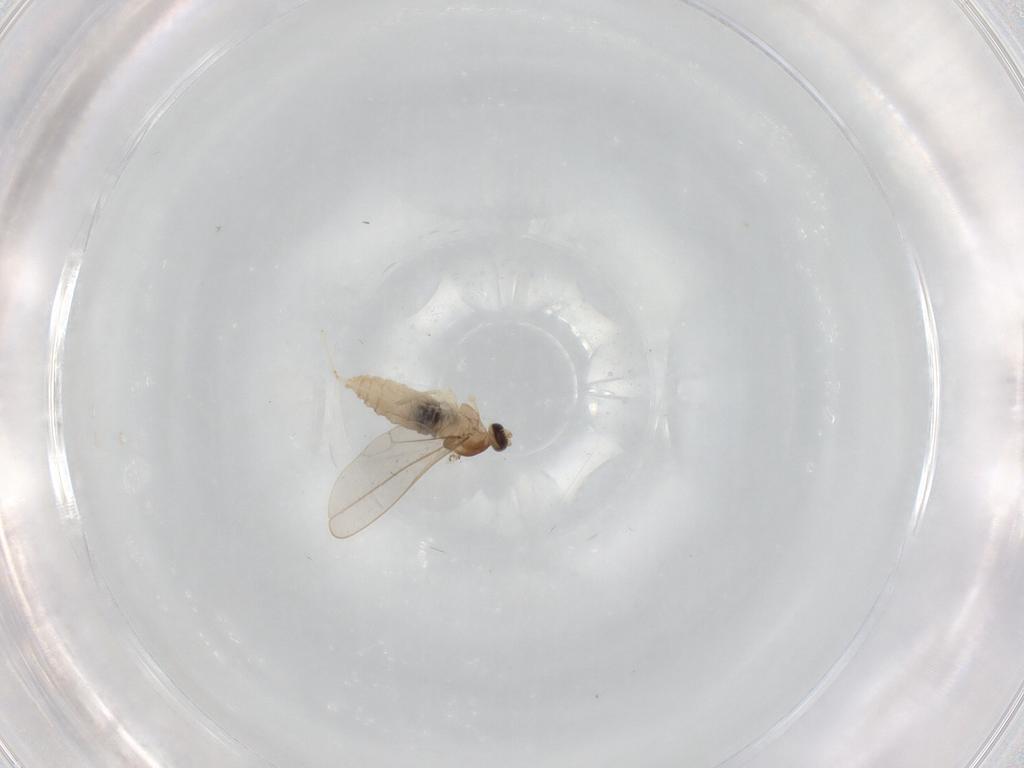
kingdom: Animalia
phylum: Arthropoda
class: Insecta
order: Diptera
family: Cecidomyiidae
